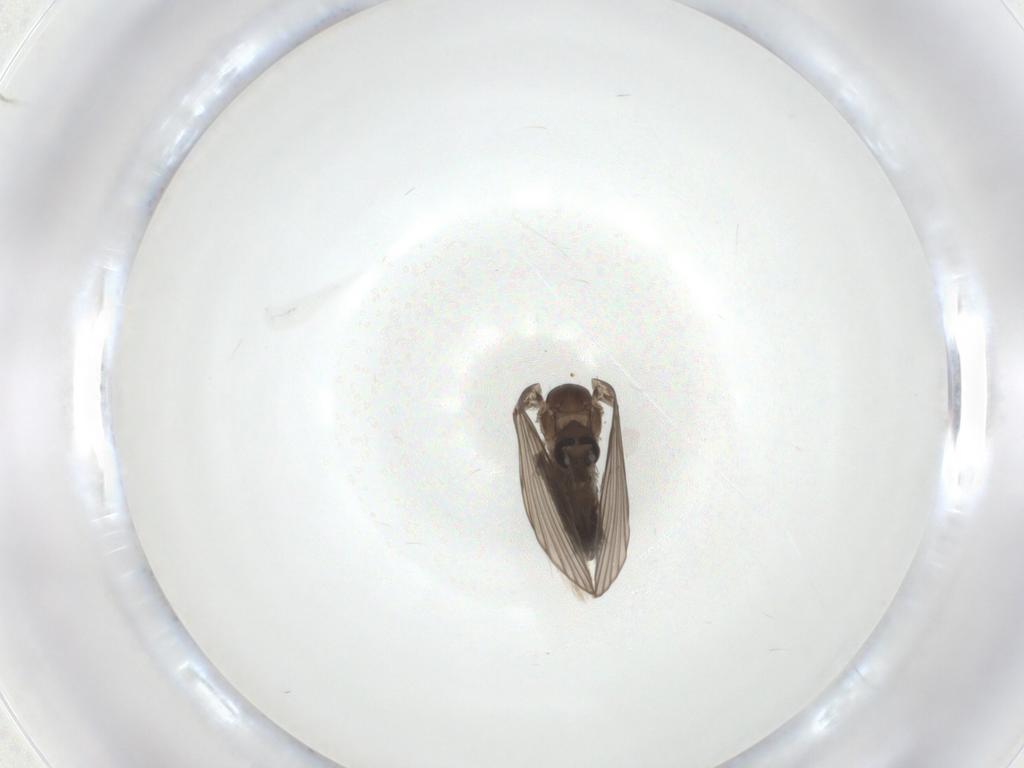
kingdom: Animalia
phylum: Arthropoda
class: Insecta
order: Diptera
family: Psychodidae
